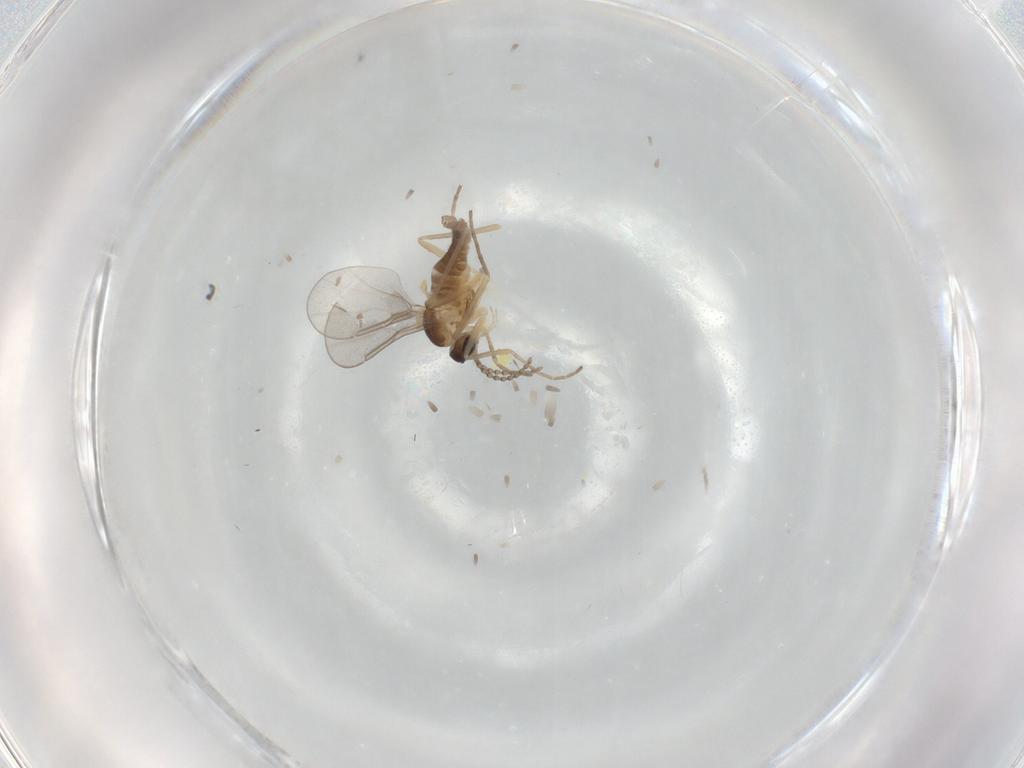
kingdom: Animalia
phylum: Arthropoda
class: Insecta
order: Diptera
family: Cecidomyiidae
